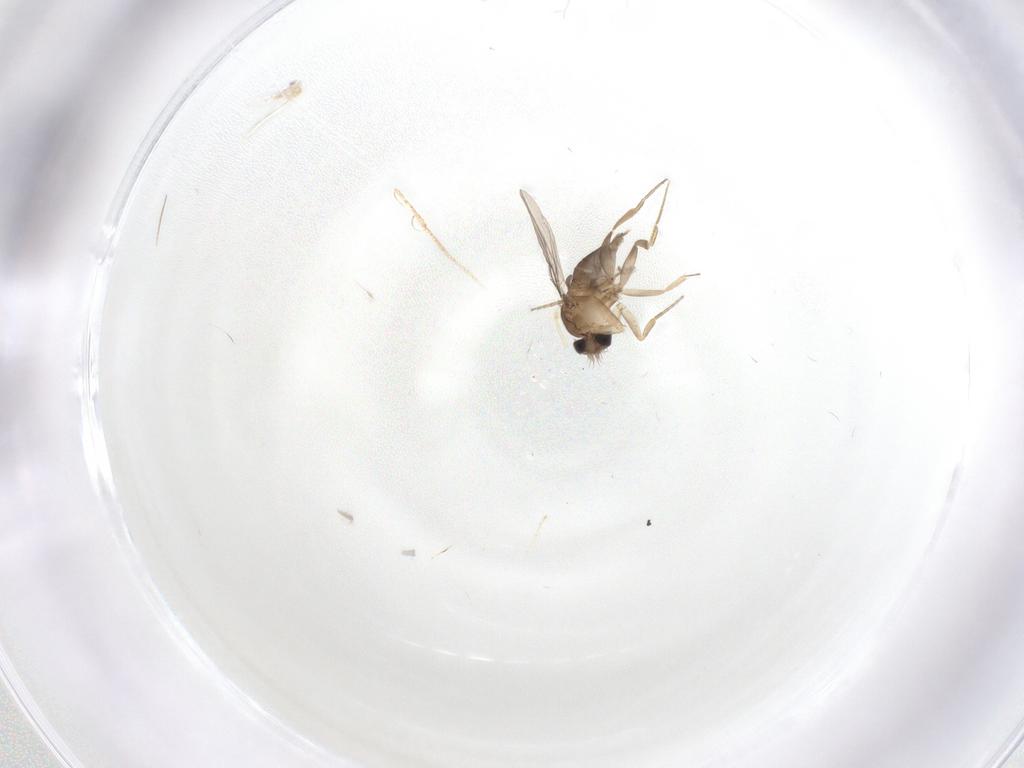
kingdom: Animalia
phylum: Arthropoda
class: Insecta
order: Diptera
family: Phoridae
